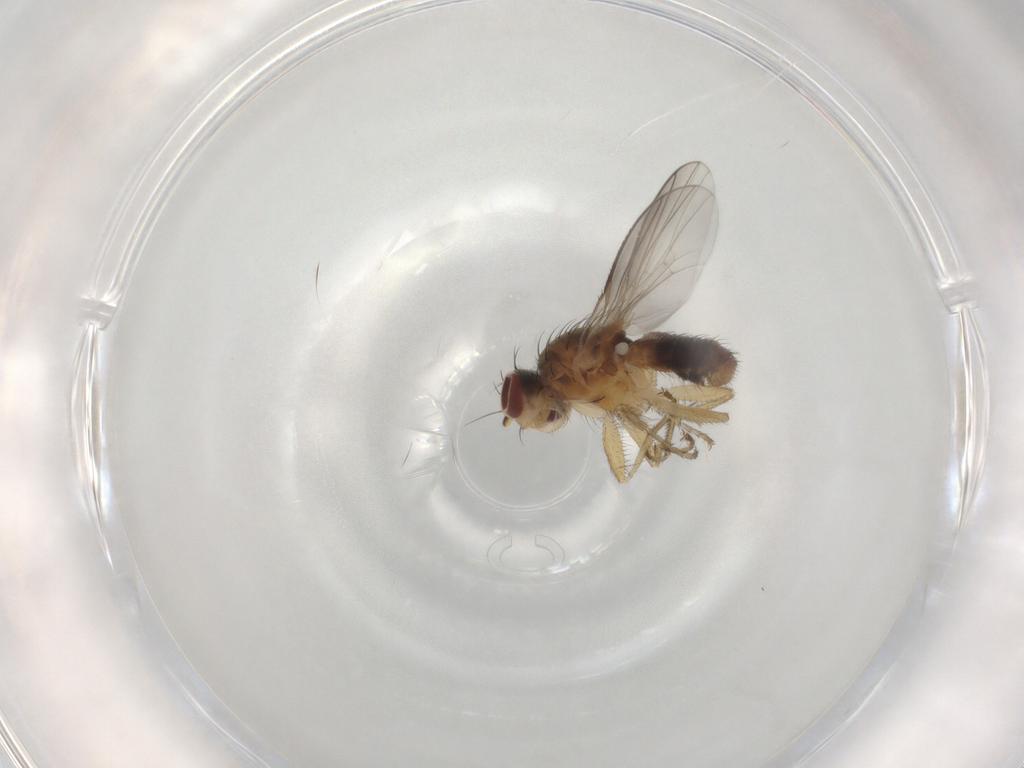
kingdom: Animalia
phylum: Arthropoda
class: Insecta
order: Diptera
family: Heleomyzidae
